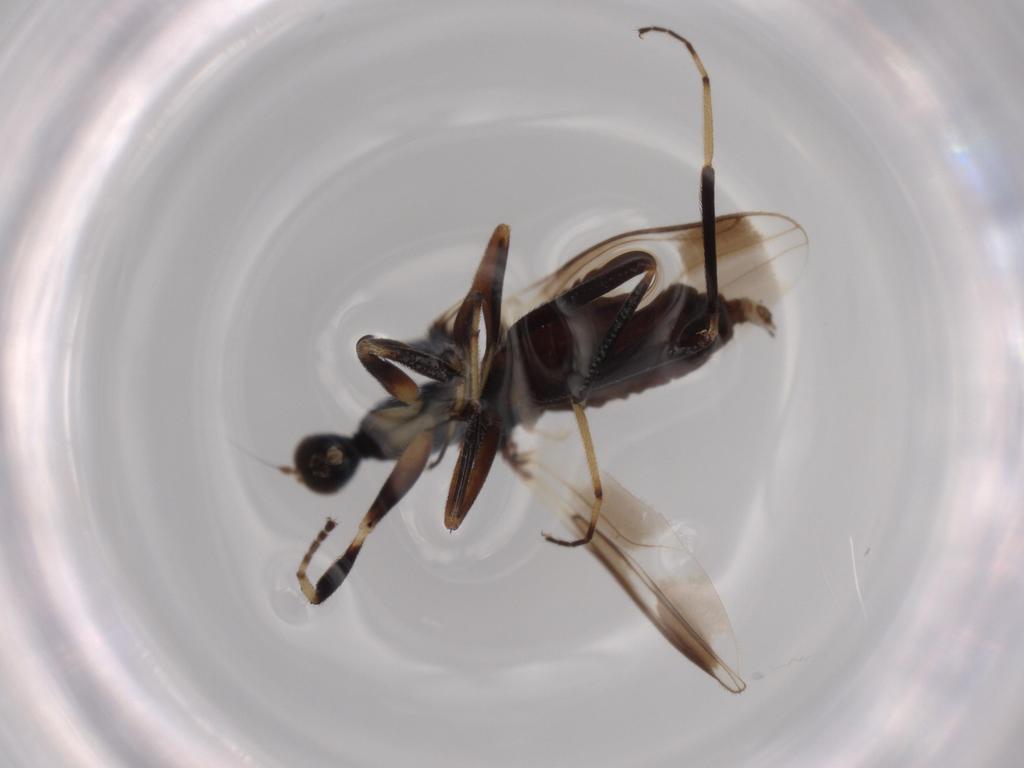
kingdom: Animalia
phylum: Arthropoda
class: Insecta
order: Diptera
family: Hybotidae
